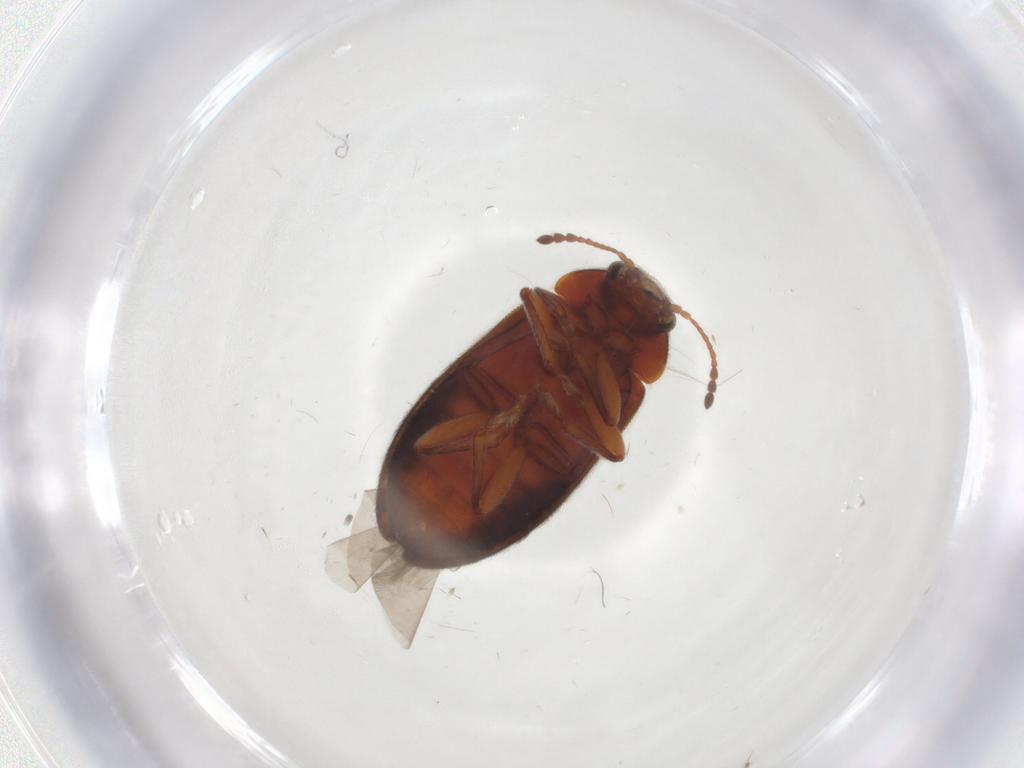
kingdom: Animalia
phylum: Arthropoda
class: Insecta
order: Coleoptera
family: Byturidae
